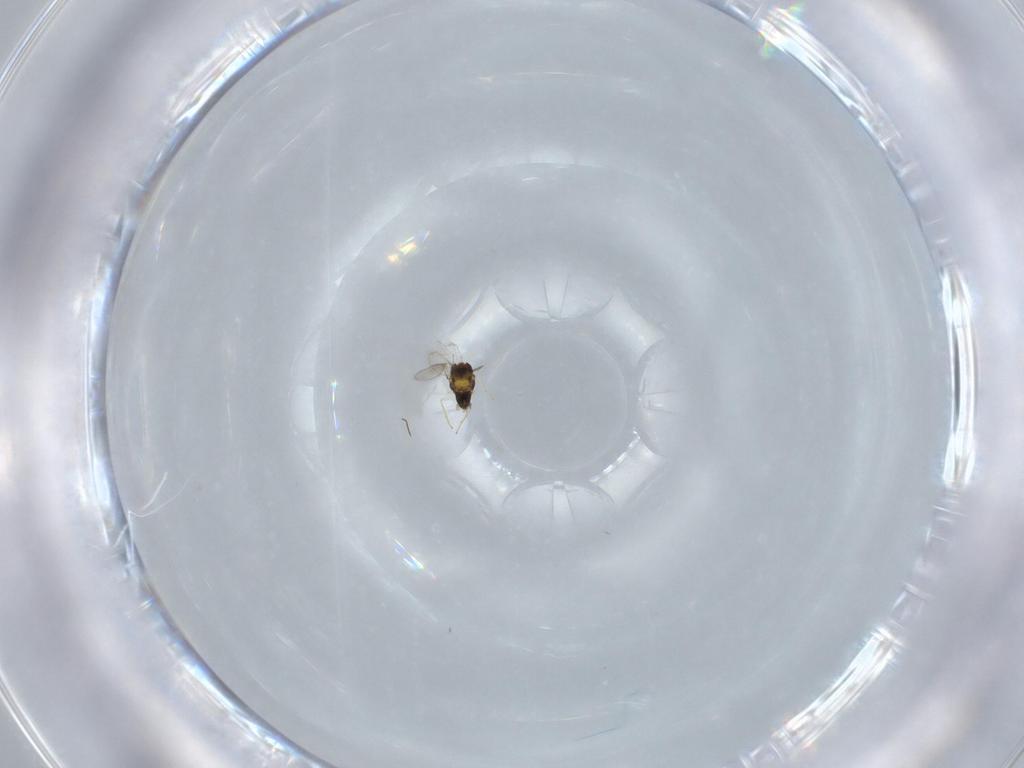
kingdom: Animalia
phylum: Arthropoda
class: Insecta
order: Hymenoptera
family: Aphelinidae
